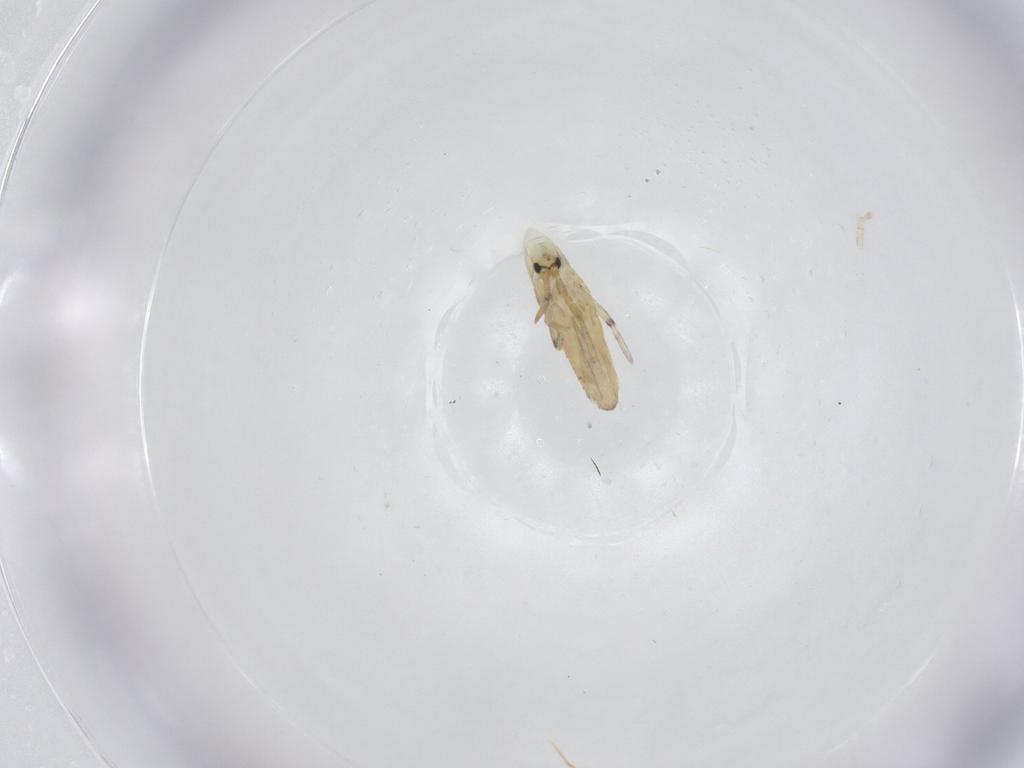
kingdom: Animalia
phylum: Arthropoda
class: Collembola
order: Entomobryomorpha
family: Entomobryidae
